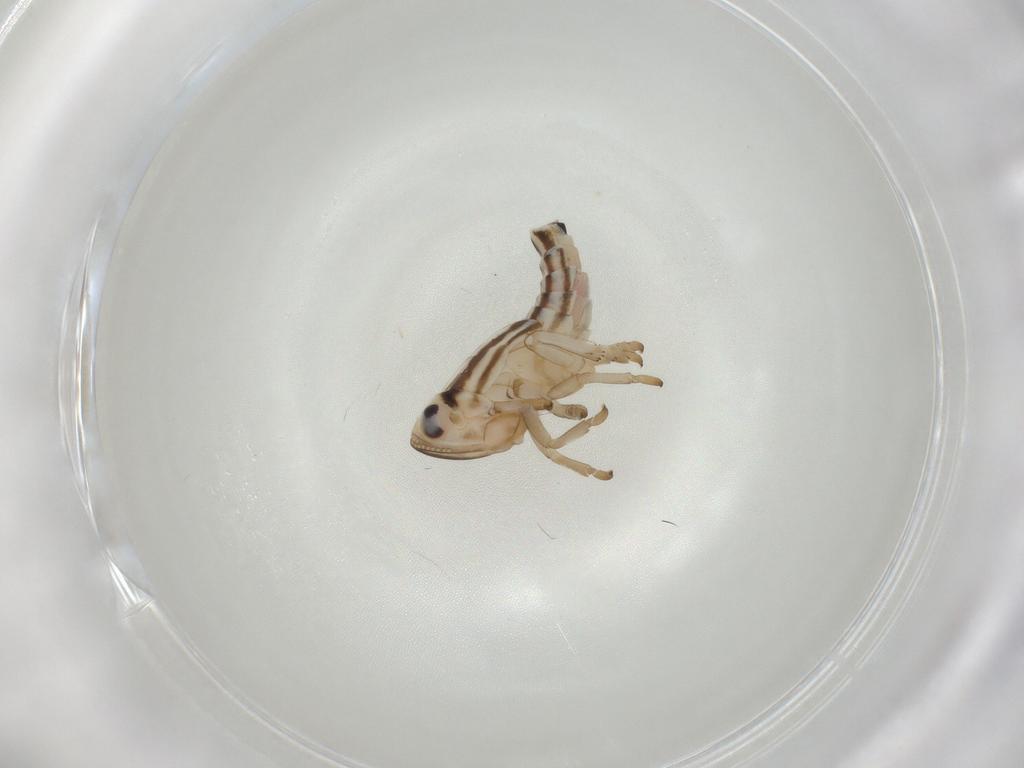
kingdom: Animalia
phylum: Arthropoda
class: Insecta
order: Hemiptera
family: Fulgoroidea_incertae_sedis
